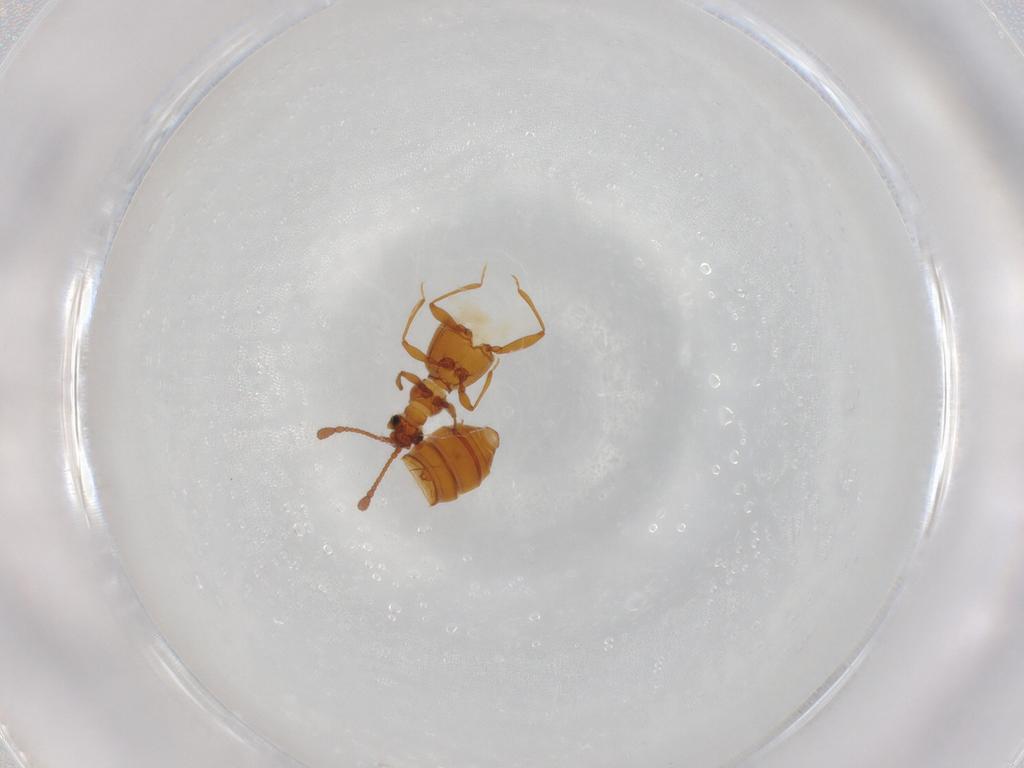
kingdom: Animalia
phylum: Arthropoda
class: Insecta
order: Coleoptera
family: Staphylinidae
